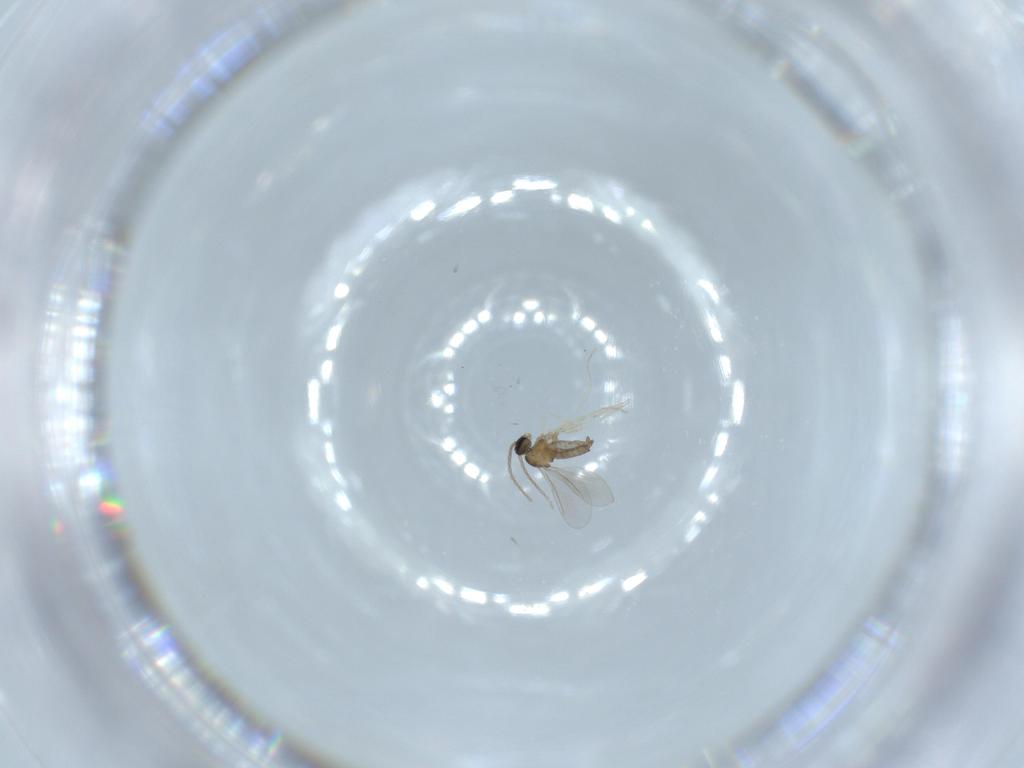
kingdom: Animalia
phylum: Arthropoda
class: Insecta
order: Diptera
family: Cecidomyiidae
